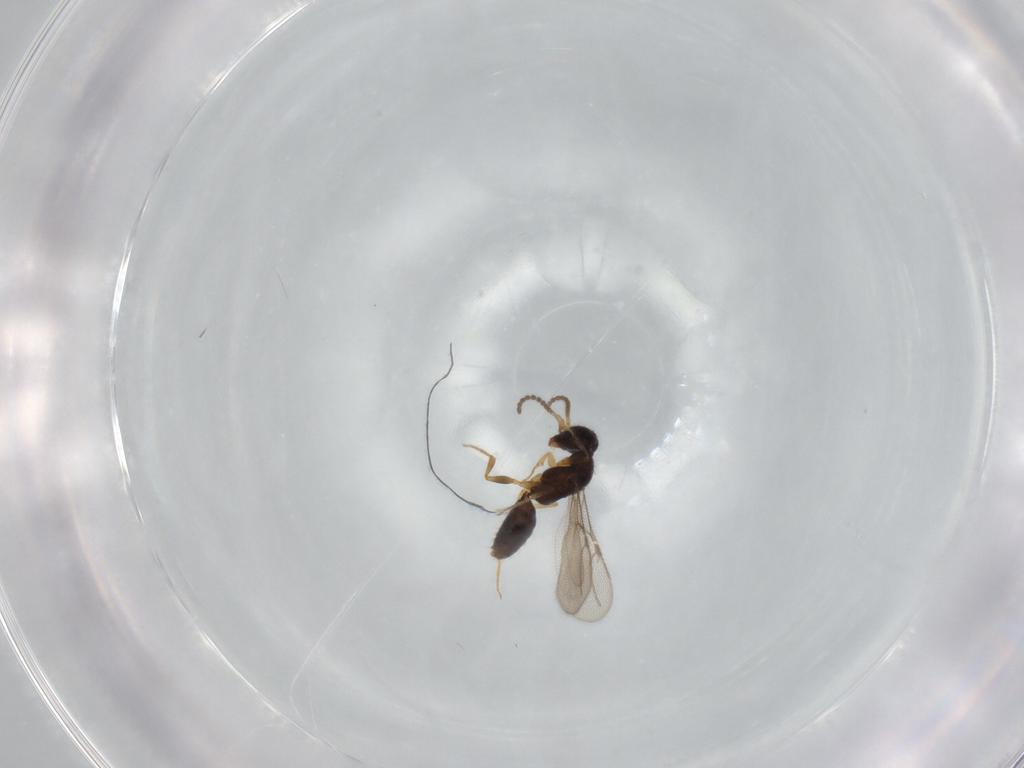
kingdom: Animalia
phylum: Arthropoda
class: Insecta
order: Hymenoptera
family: Bethylidae
